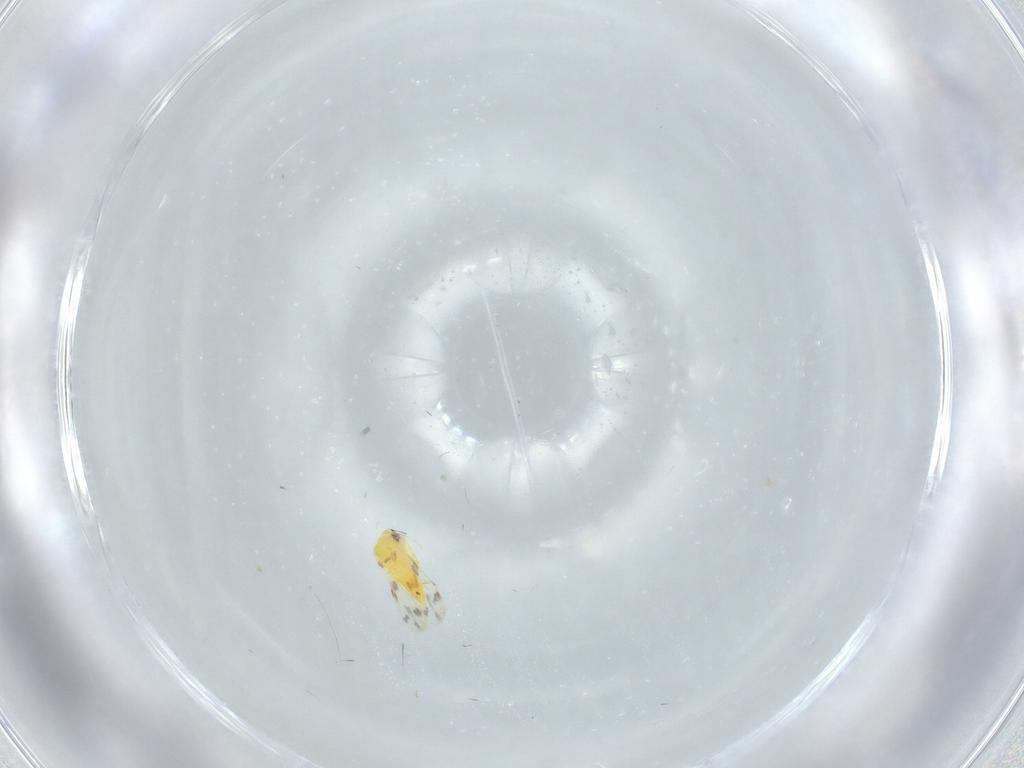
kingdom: Animalia
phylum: Arthropoda
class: Insecta
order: Hemiptera
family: Aleyrodidae
